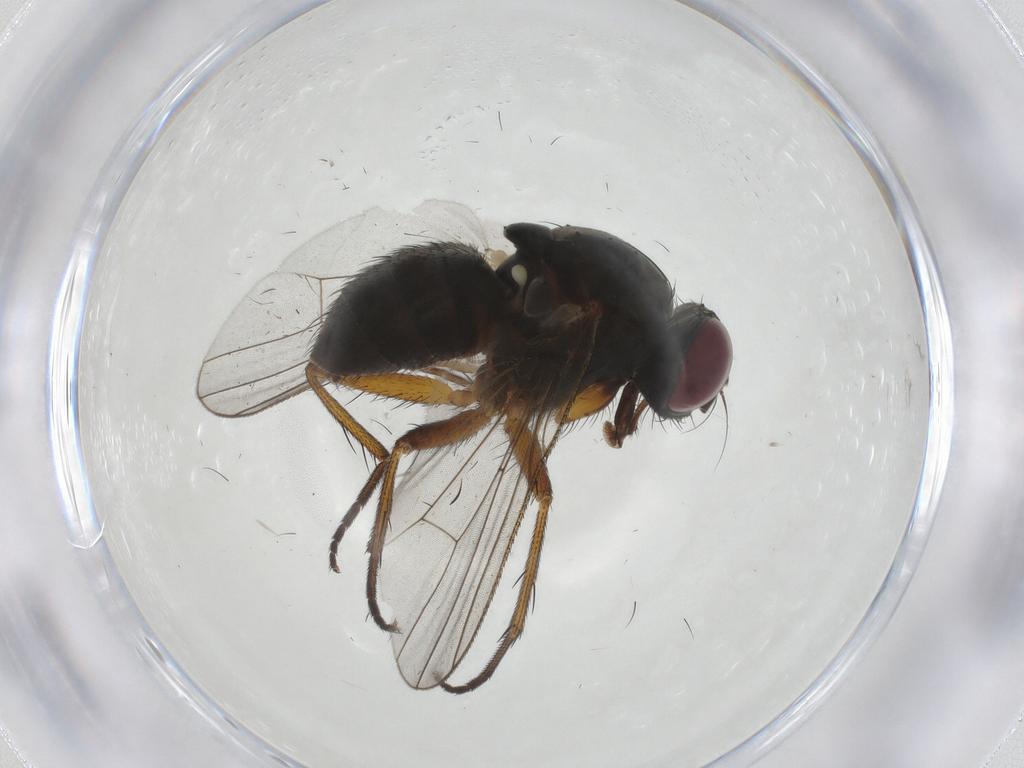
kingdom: Animalia
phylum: Arthropoda
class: Insecta
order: Diptera
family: Muscidae
